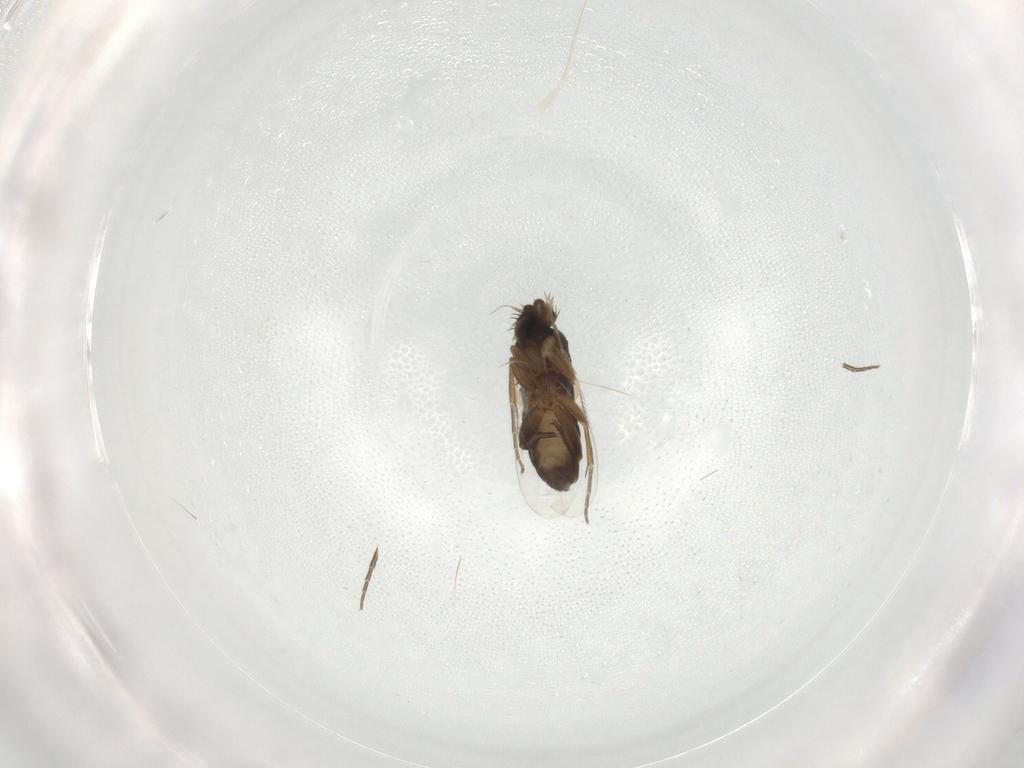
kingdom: Animalia
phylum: Arthropoda
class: Insecta
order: Diptera
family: Phoridae
